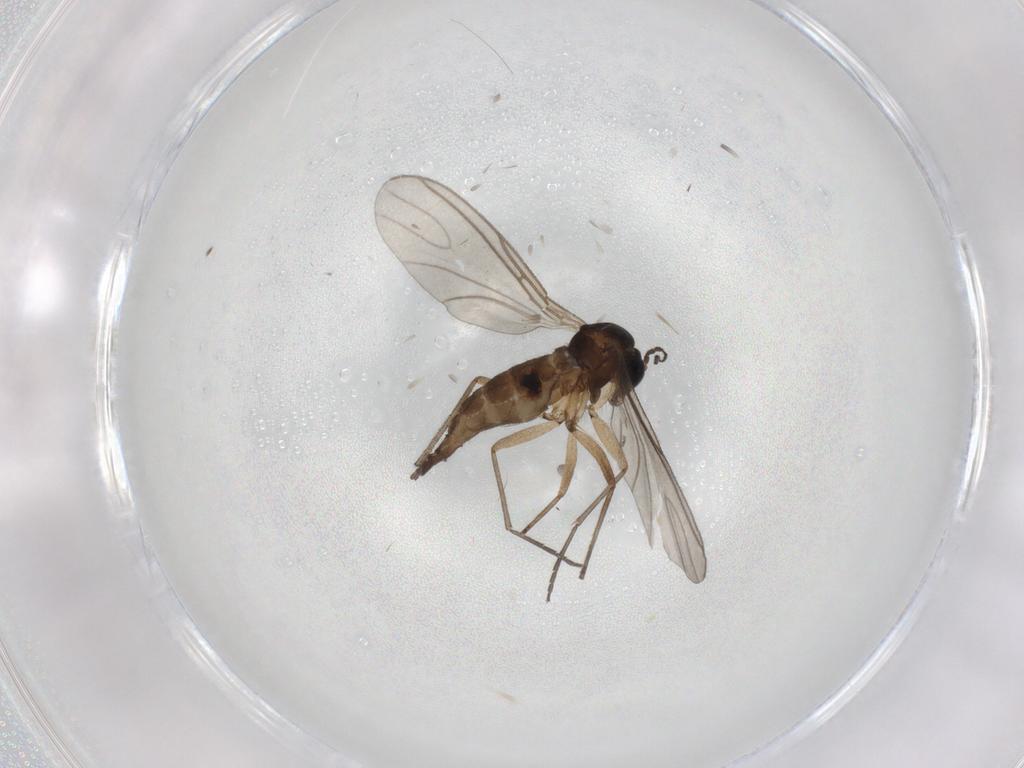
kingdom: Animalia
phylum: Arthropoda
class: Insecta
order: Diptera
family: Sciaridae
